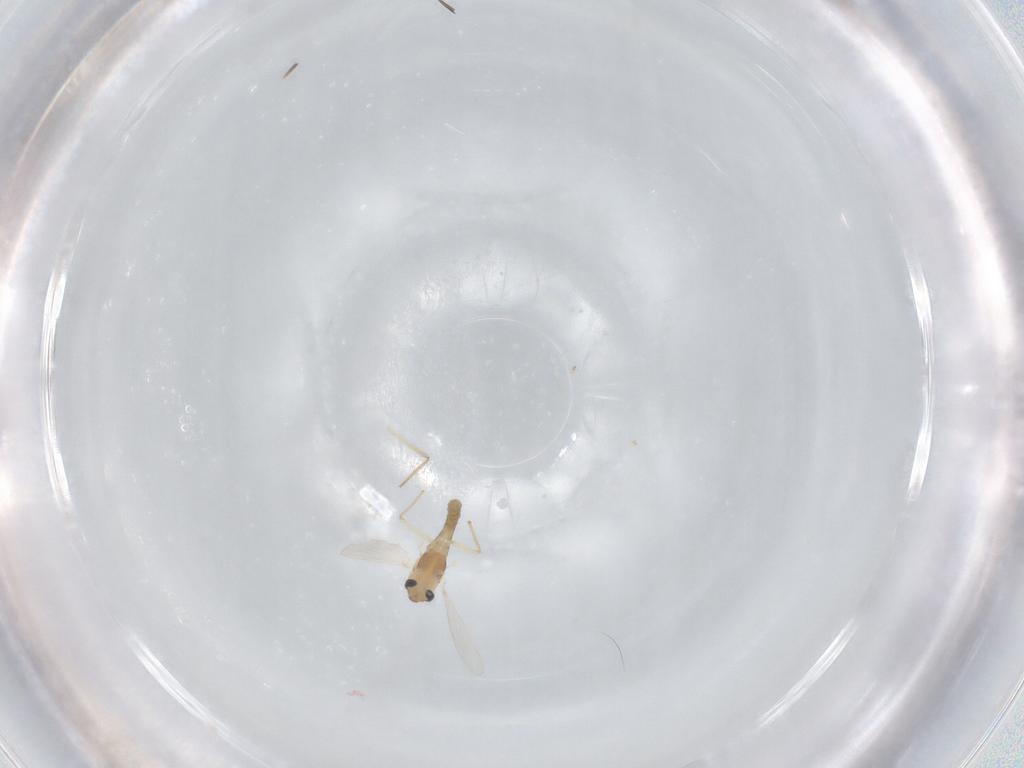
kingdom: Animalia
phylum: Arthropoda
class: Insecta
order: Diptera
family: Chironomidae
